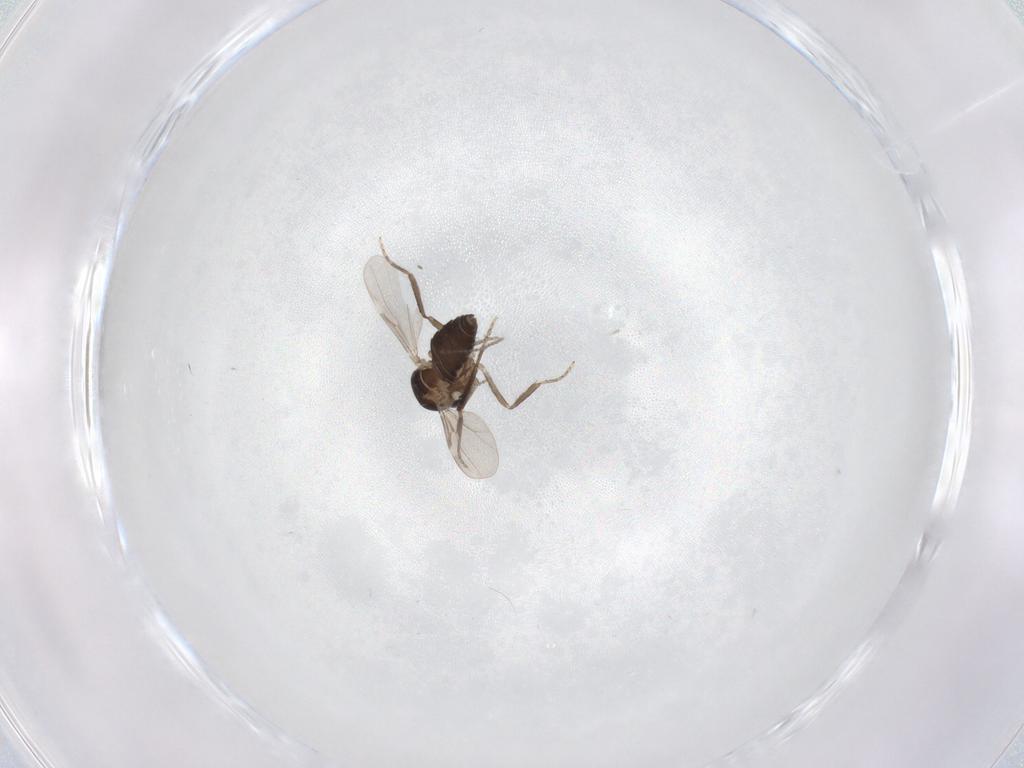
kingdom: Animalia
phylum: Arthropoda
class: Insecta
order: Diptera
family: Ceratopogonidae
